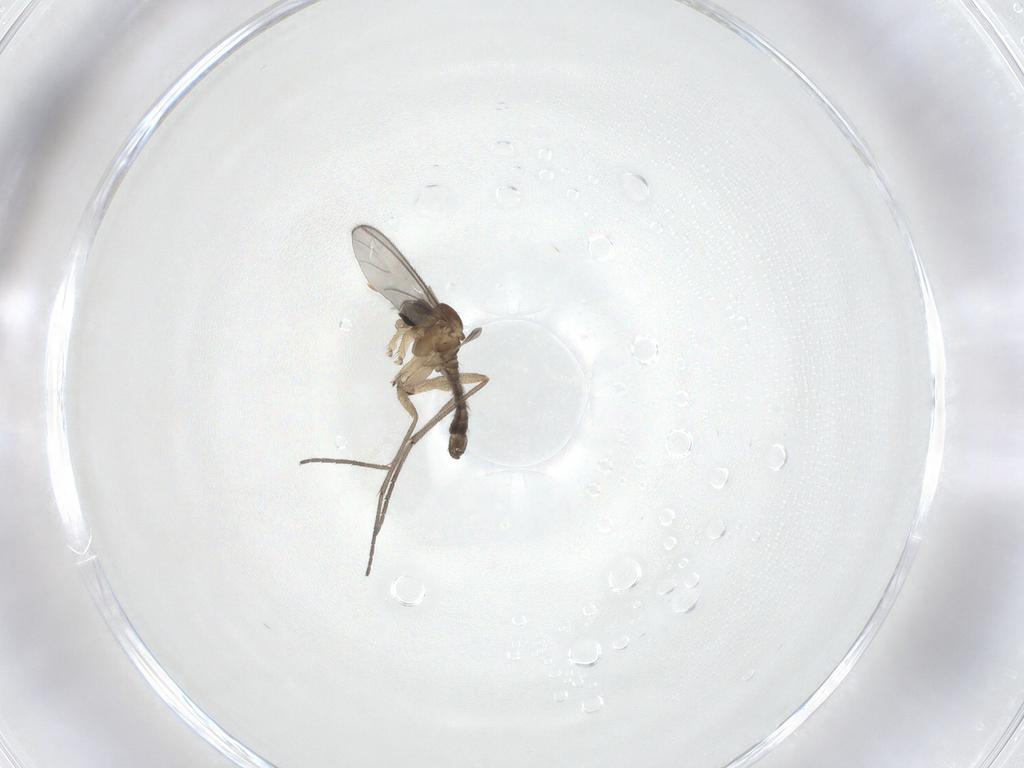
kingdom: Animalia
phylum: Arthropoda
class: Insecta
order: Diptera
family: Sciaridae
